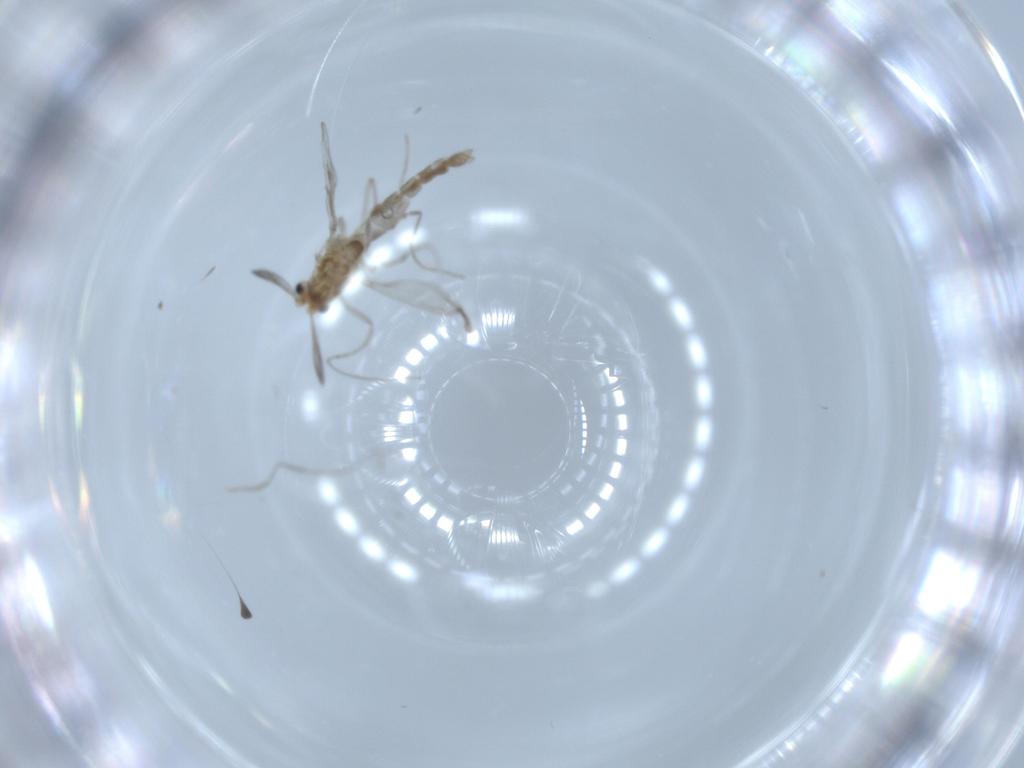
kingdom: Animalia
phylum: Arthropoda
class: Insecta
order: Diptera
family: Chironomidae
